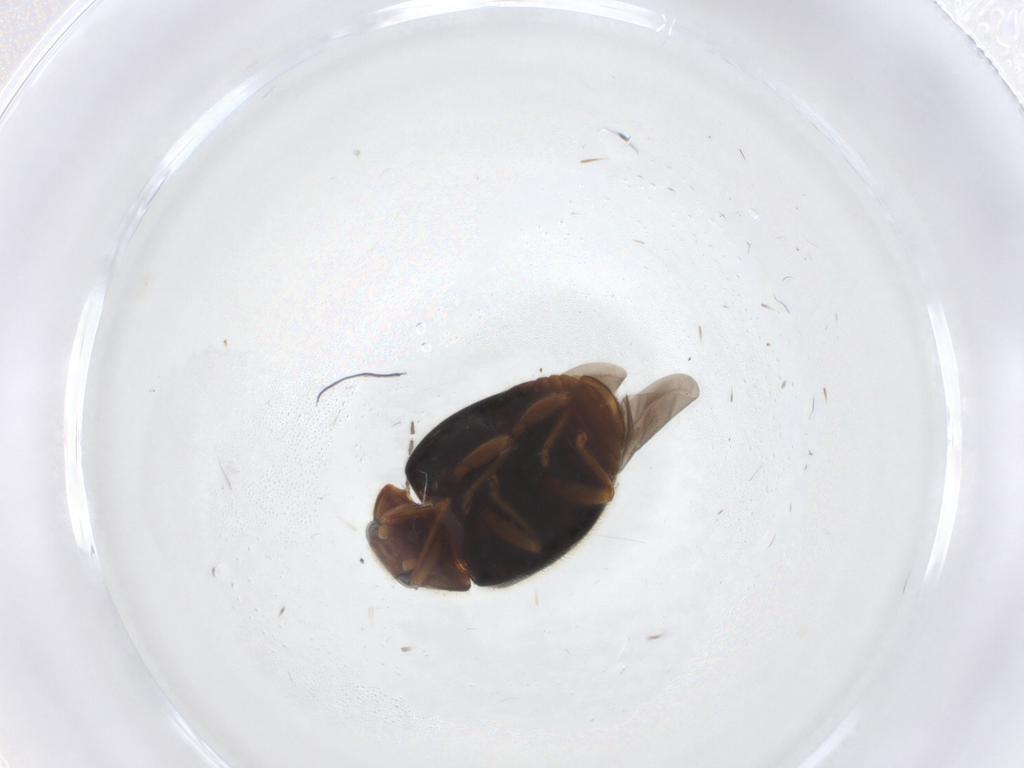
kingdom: Animalia
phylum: Arthropoda
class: Insecta
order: Coleoptera
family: Coccinellidae
